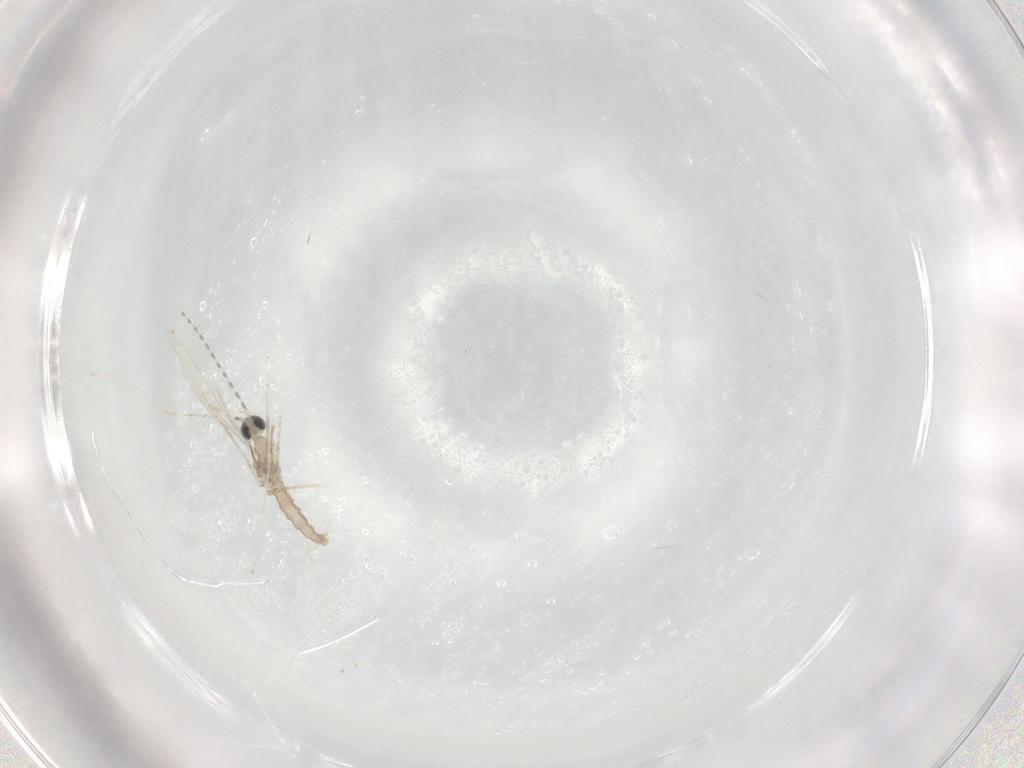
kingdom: Animalia
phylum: Arthropoda
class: Insecta
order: Diptera
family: Cecidomyiidae
